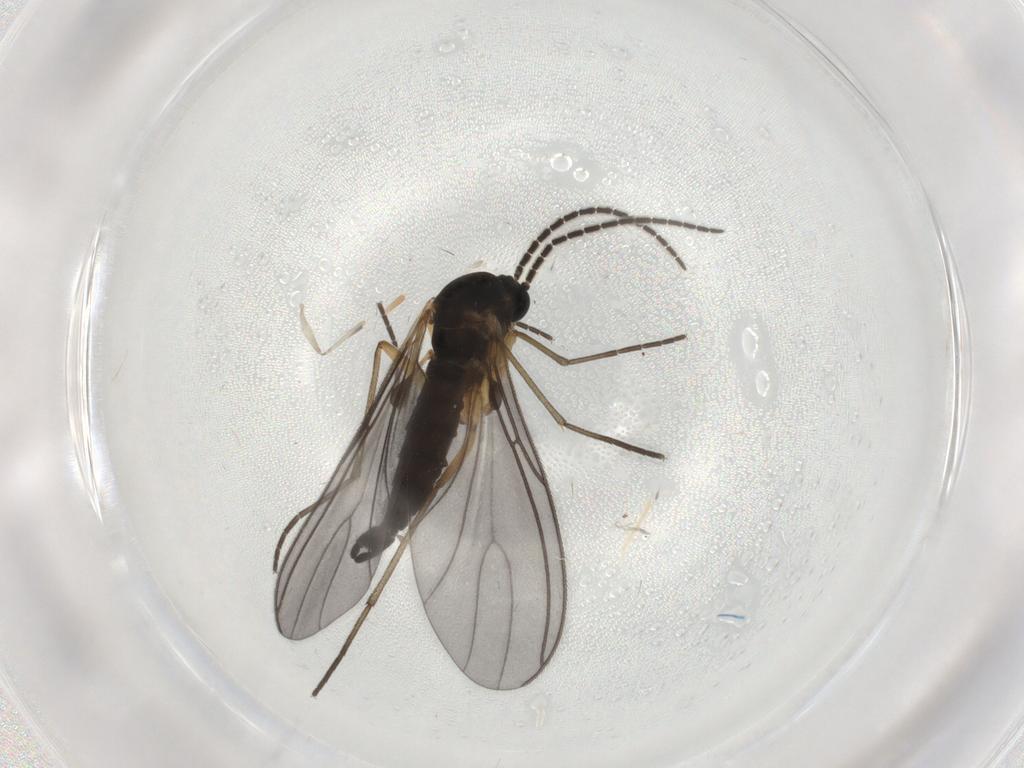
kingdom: Animalia
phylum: Arthropoda
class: Insecta
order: Diptera
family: Sciaridae
